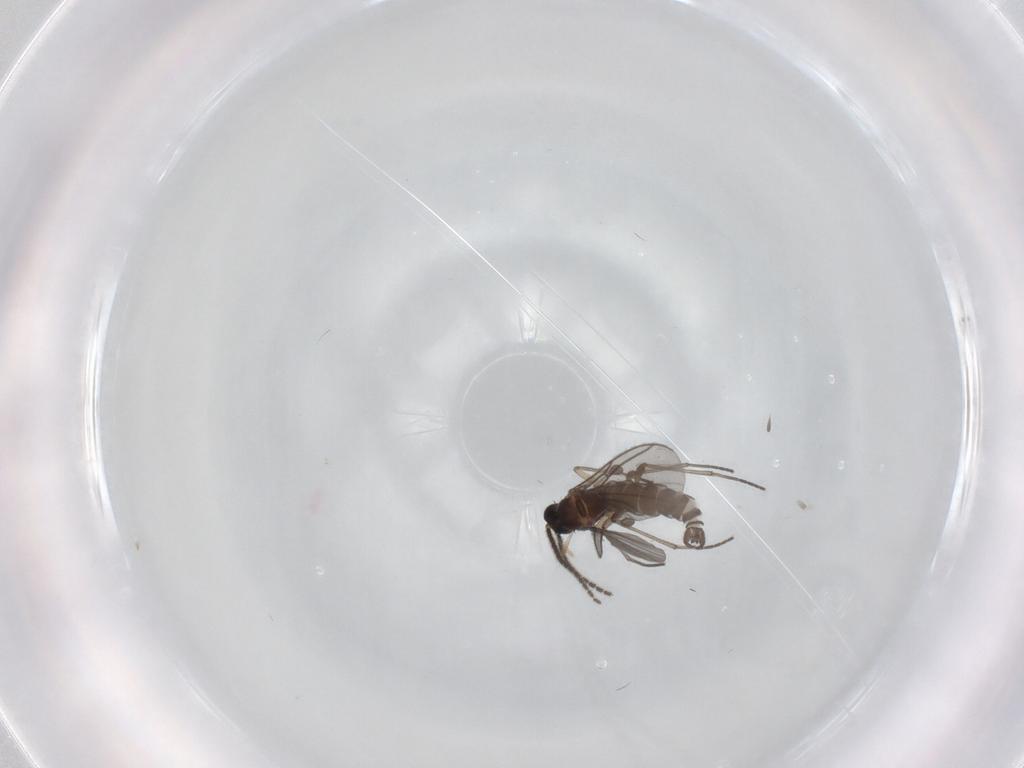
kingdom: Animalia
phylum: Arthropoda
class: Insecta
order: Diptera
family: Sciaridae
